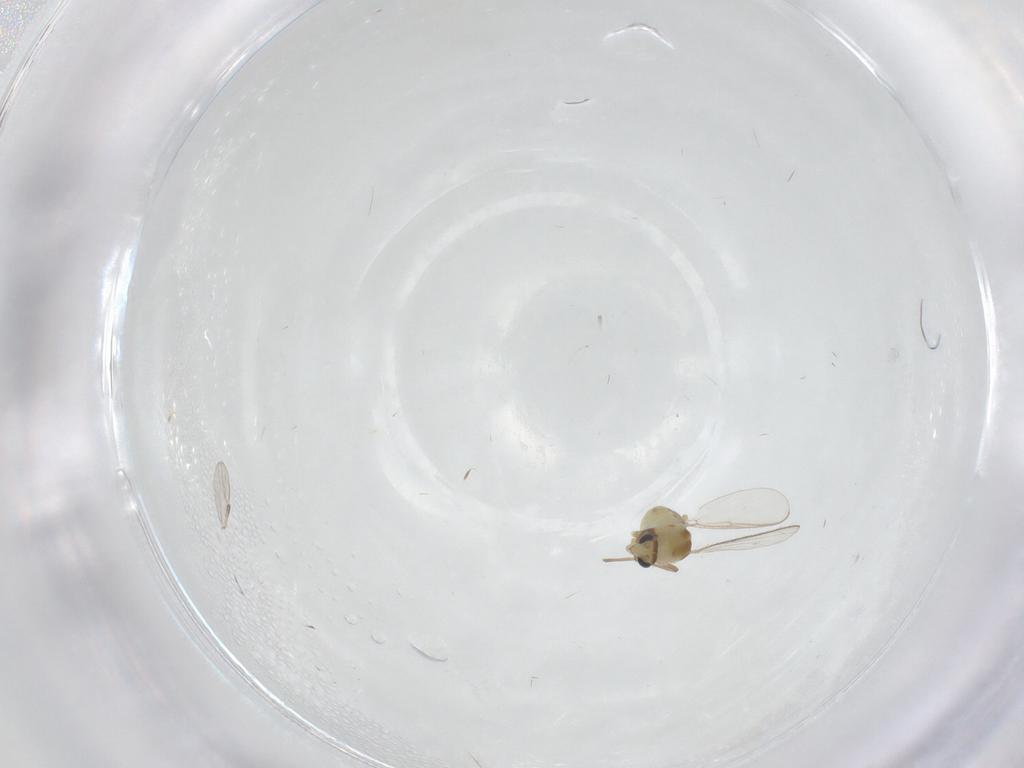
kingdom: Animalia
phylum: Arthropoda
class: Insecta
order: Diptera
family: Chironomidae
